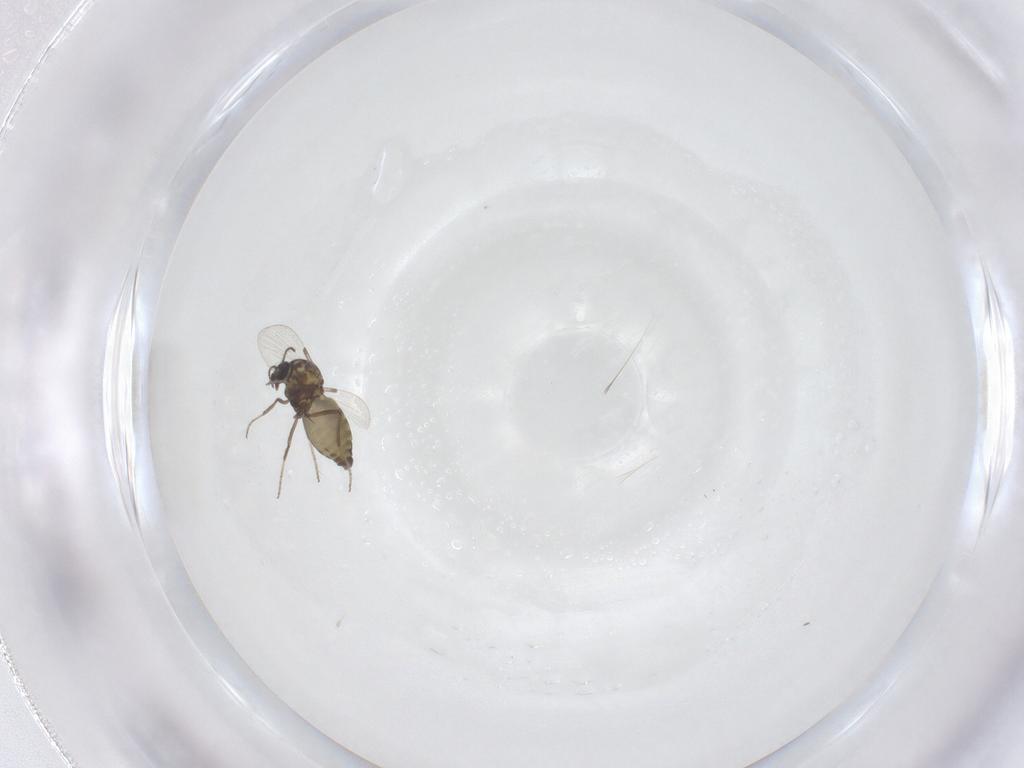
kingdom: Animalia
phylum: Arthropoda
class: Insecta
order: Diptera
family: Ceratopogonidae
